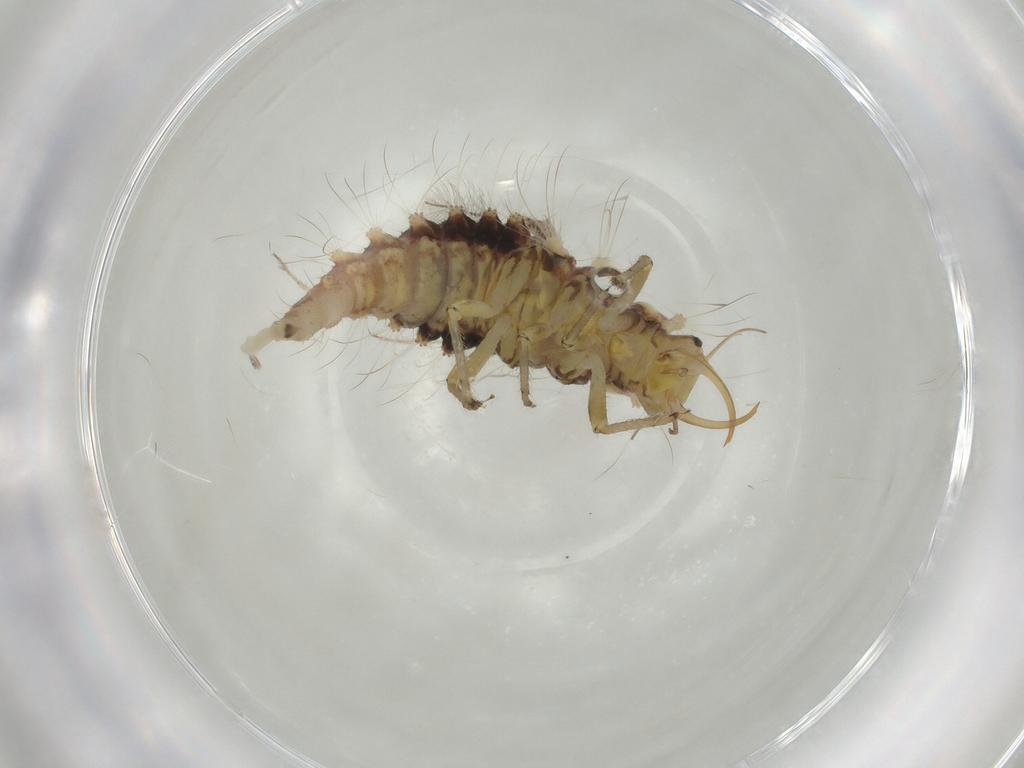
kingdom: Animalia
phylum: Arthropoda
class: Insecta
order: Neuroptera
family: Chrysopidae
